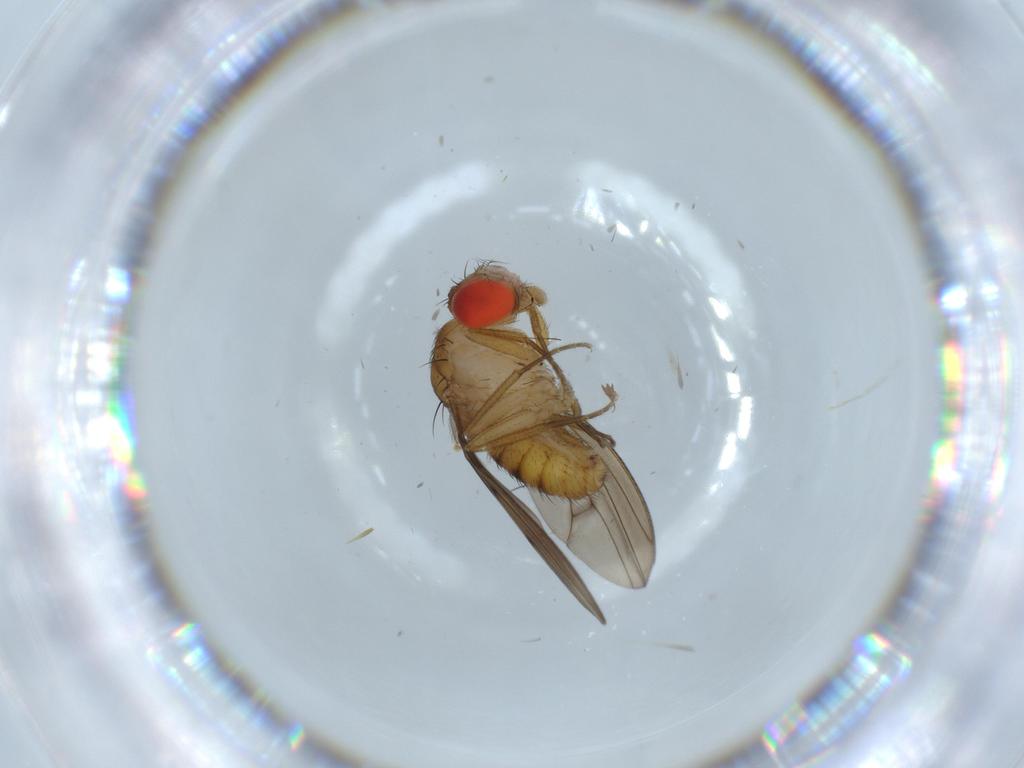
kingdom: Animalia
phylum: Arthropoda
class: Insecta
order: Diptera
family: Drosophilidae
